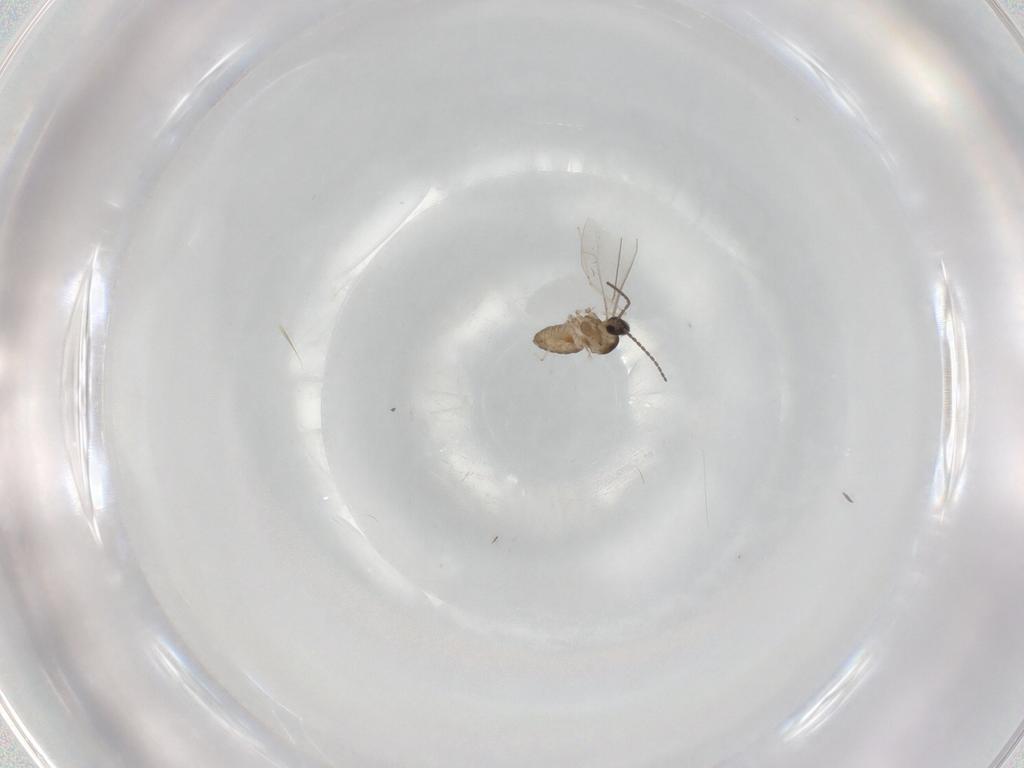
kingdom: Animalia
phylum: Arthropoda
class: Insecta
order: Diptera
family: Cecidomyiidae
